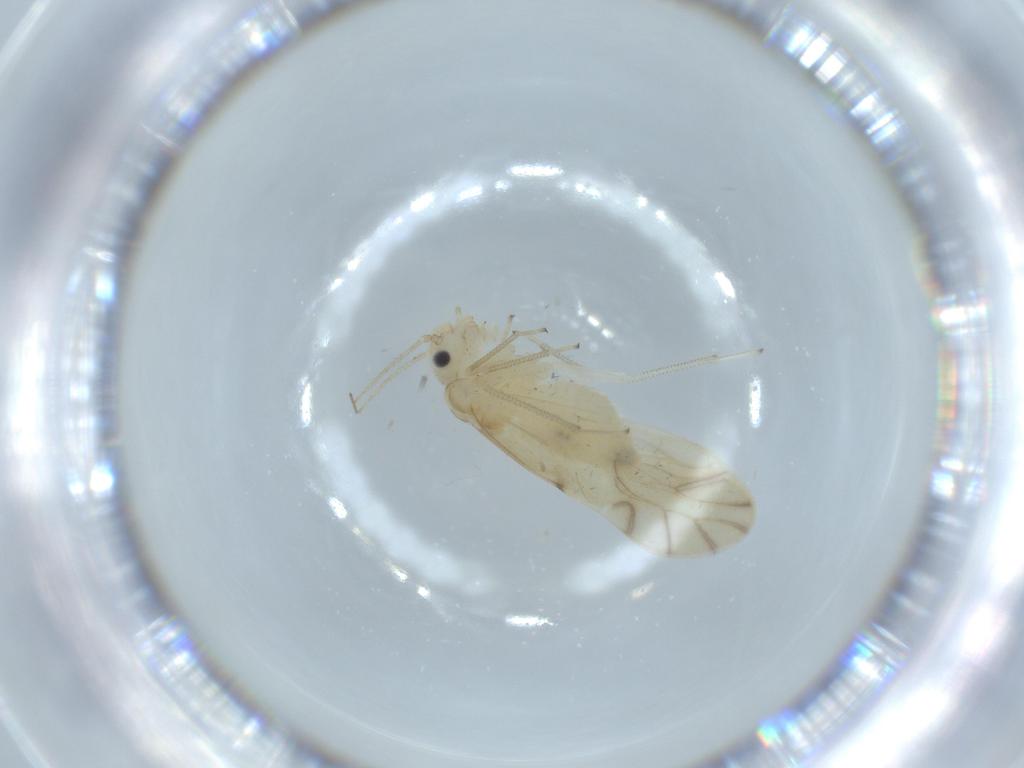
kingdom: Animalia
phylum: Arthropoda
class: Insecta
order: Psocodea
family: Caeciliusidae
